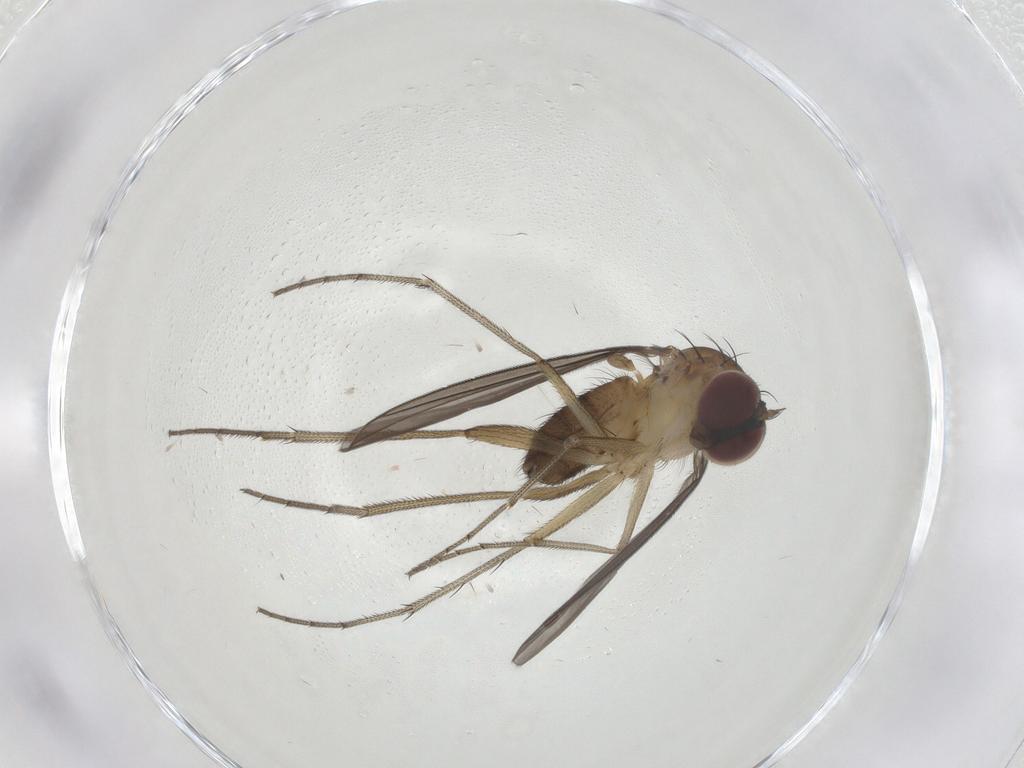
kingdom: Animalia
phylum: Arthropoda
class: Insecta
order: Diptera
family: Dolichopodidae
